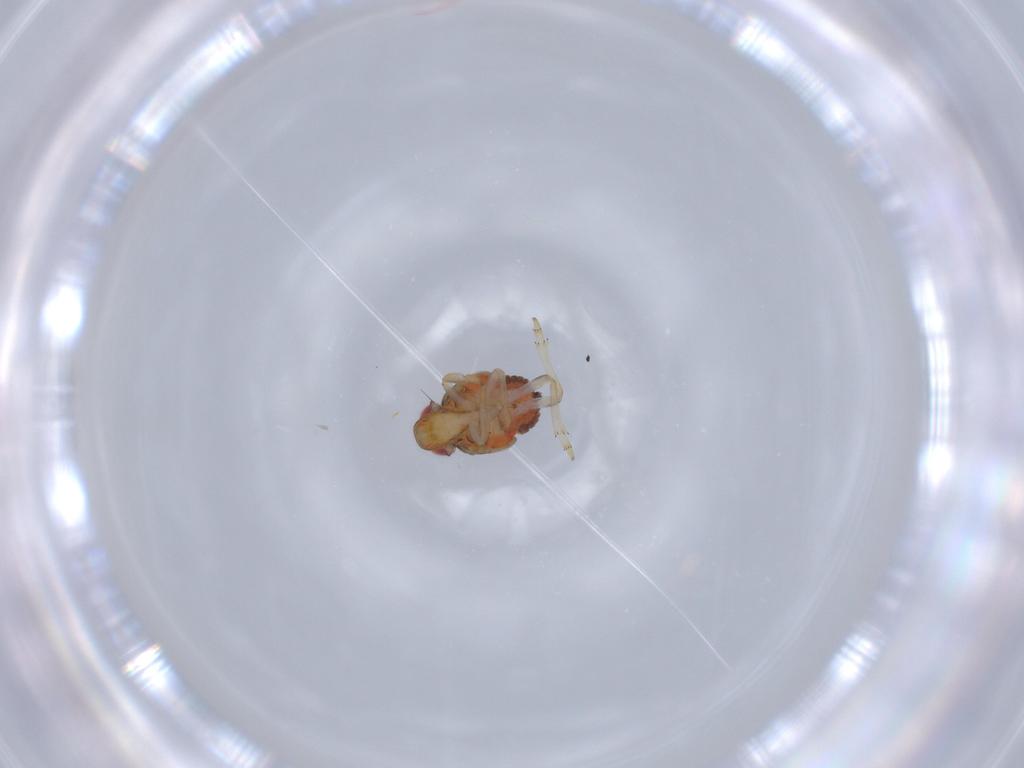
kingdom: Animalia
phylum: Arthropoda
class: Insecta
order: Hemiptera
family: Issidae
